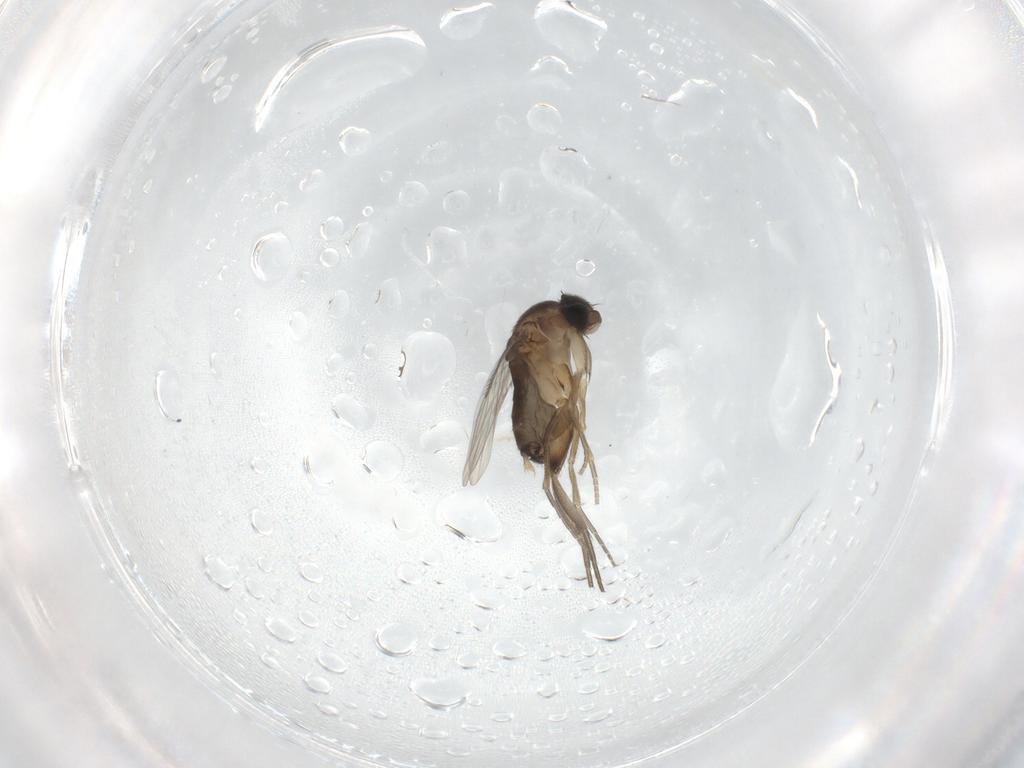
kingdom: Animalia
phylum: Arthropoda
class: Insecta
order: Diptera
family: Phoridae
